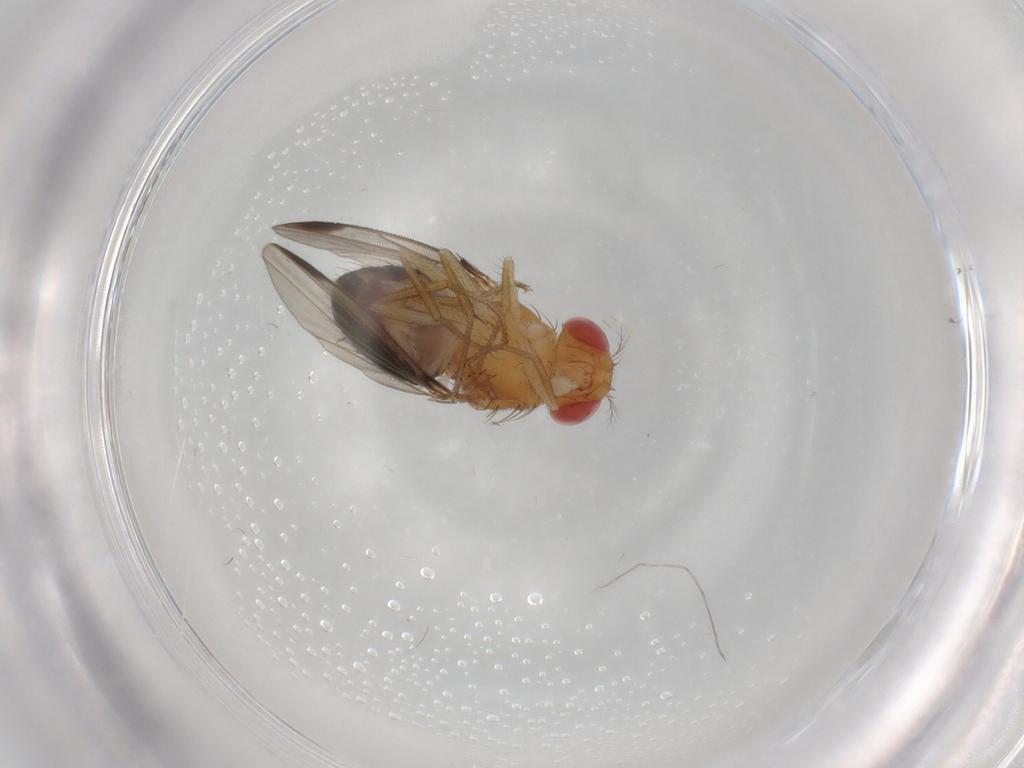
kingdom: Animalia
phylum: Arthropoda
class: Insecta
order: Diptera
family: Drosophilidae
